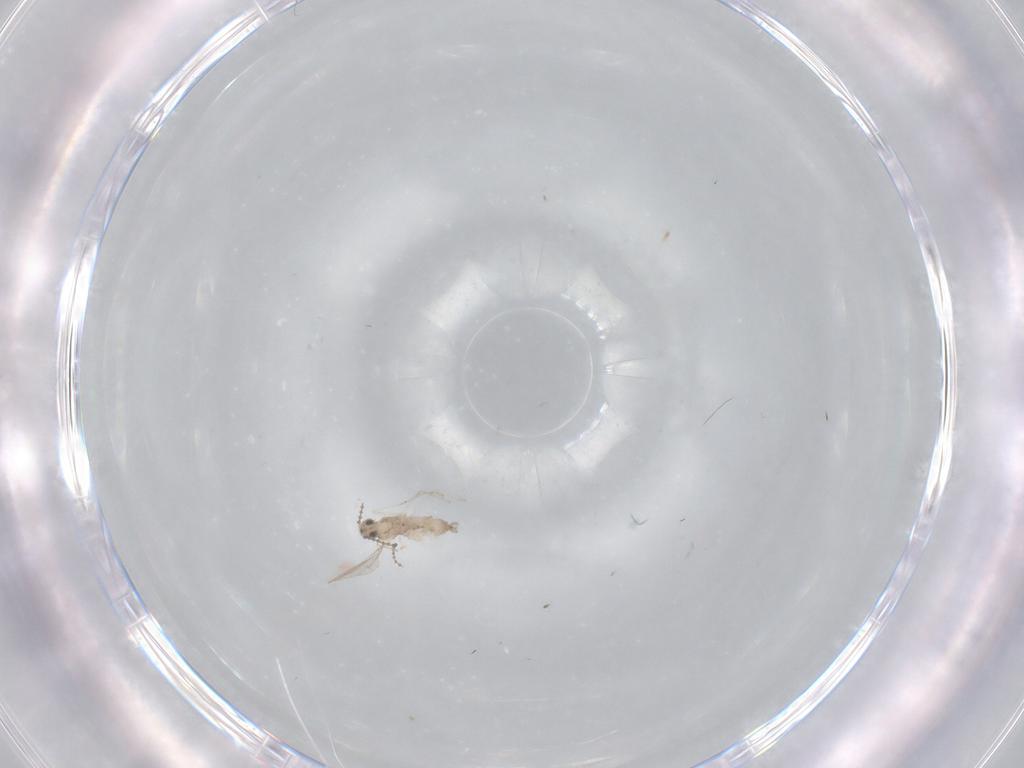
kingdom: Animalia
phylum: Arthropoda
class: Insecta
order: Diptera
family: Cecidomyiidae
